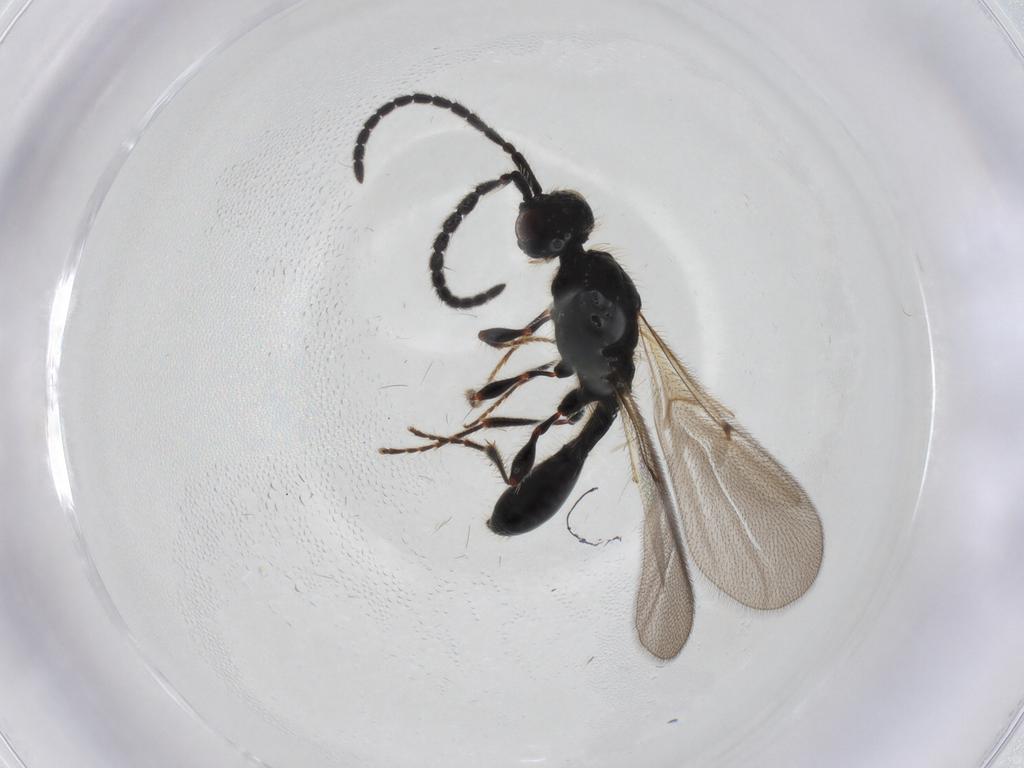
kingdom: Animalia
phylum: Arthropoda
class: Insecta
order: Hymenoptera
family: Diapriidae
